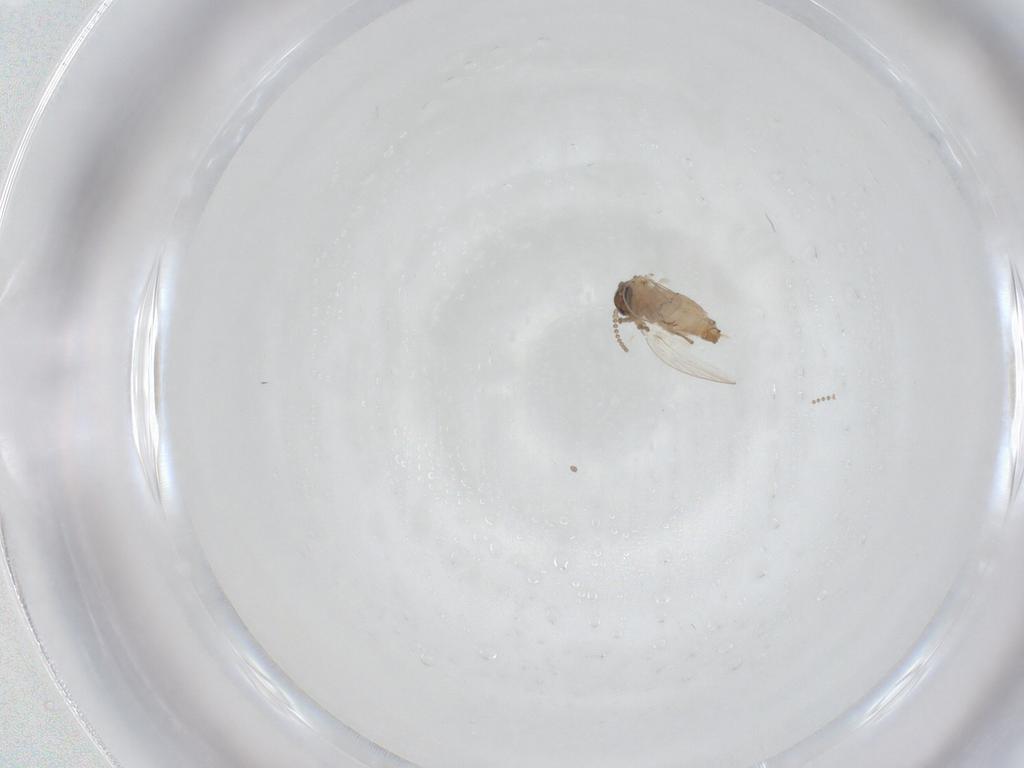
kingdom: Animalia
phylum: Arthropoda
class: Insecta
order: Diptera
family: Psychodidae
